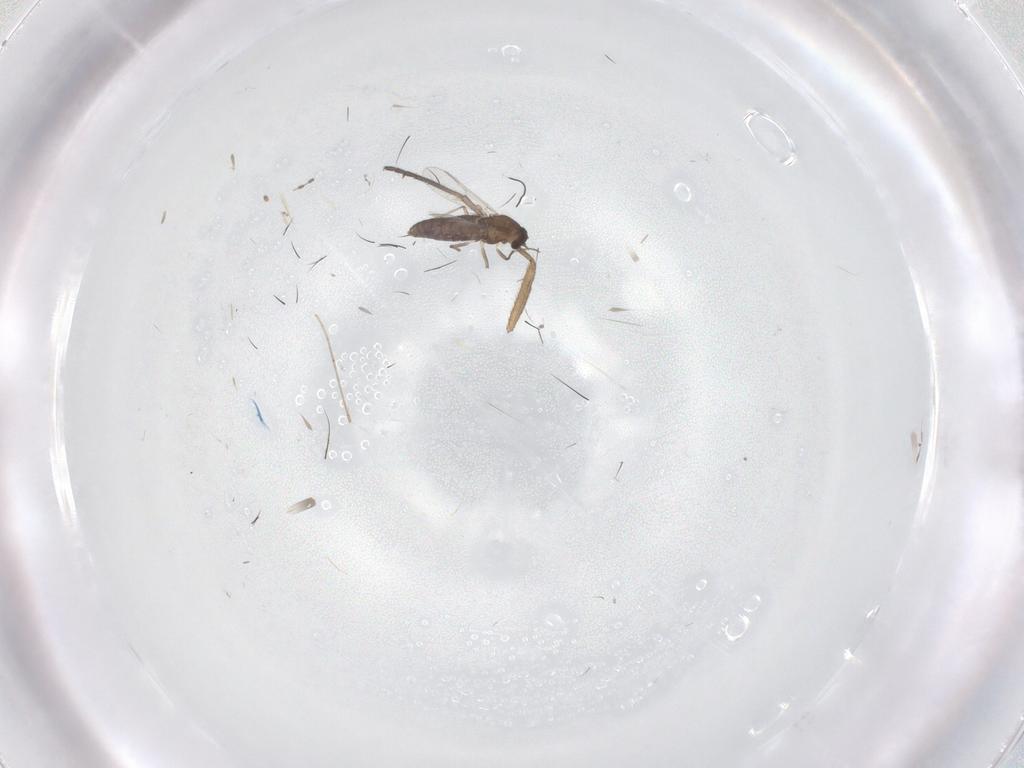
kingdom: Animalia
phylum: Arthropoda
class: Insecta
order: Diptera
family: Chironomidae
